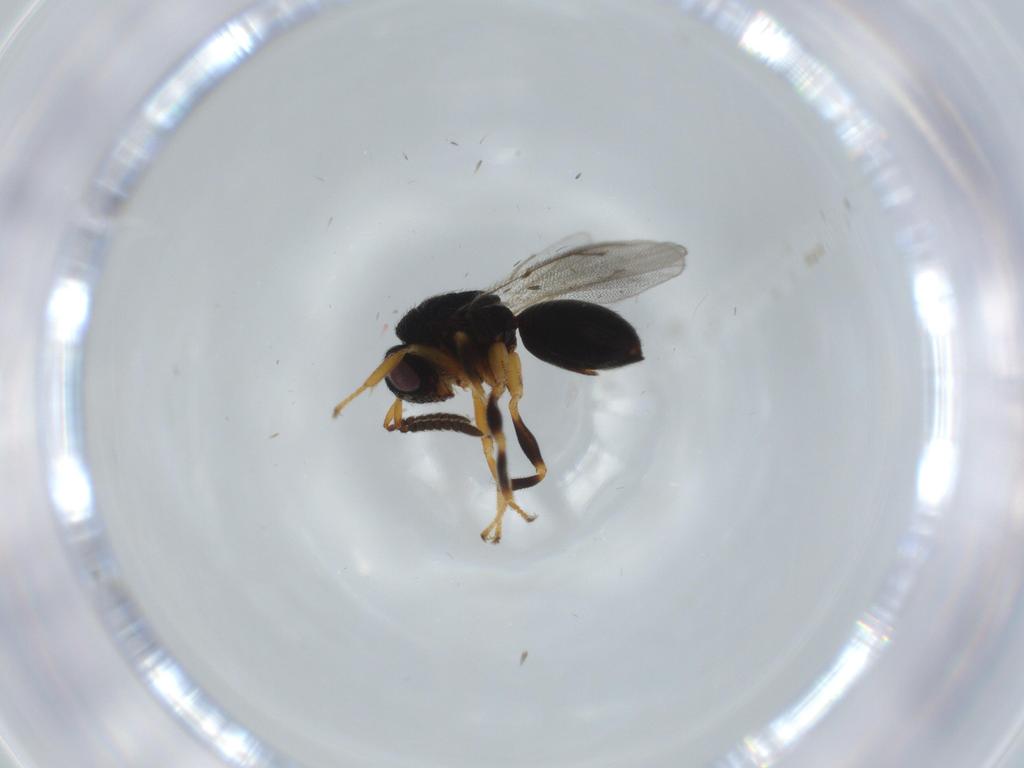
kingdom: Animalia
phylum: Arthropoda
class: Insecta
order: Hymenoptera
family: Eurytomidae
